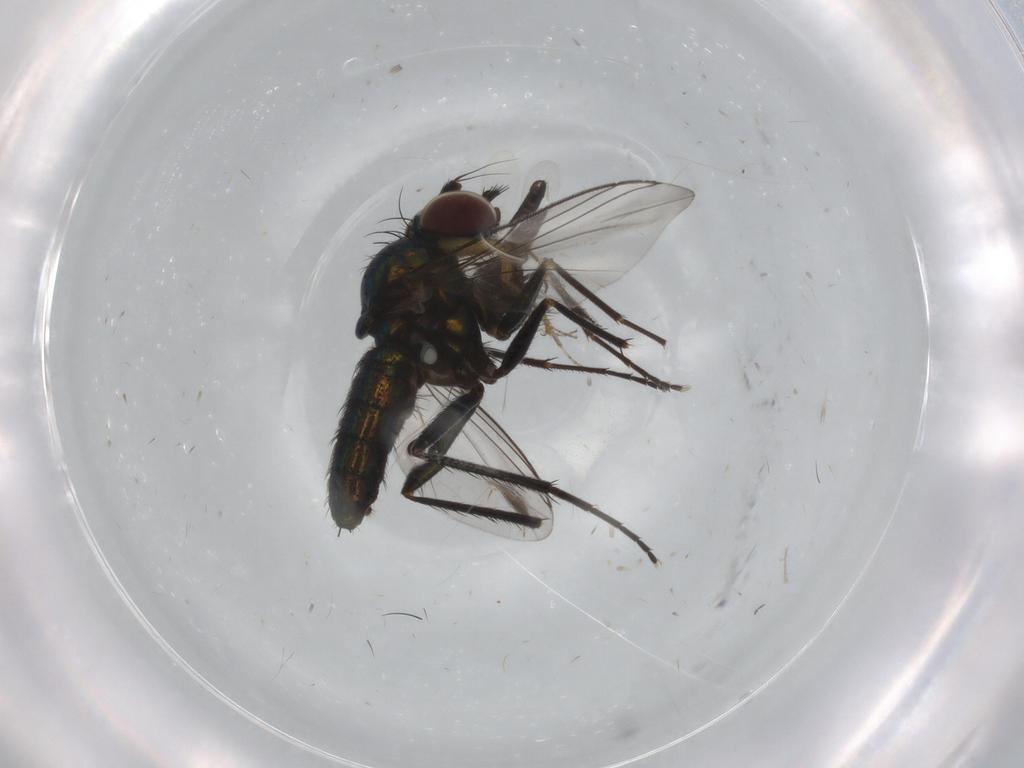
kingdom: Animalia
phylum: Arthropoda
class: Insecta
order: Diptera
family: Dolichopodidae
